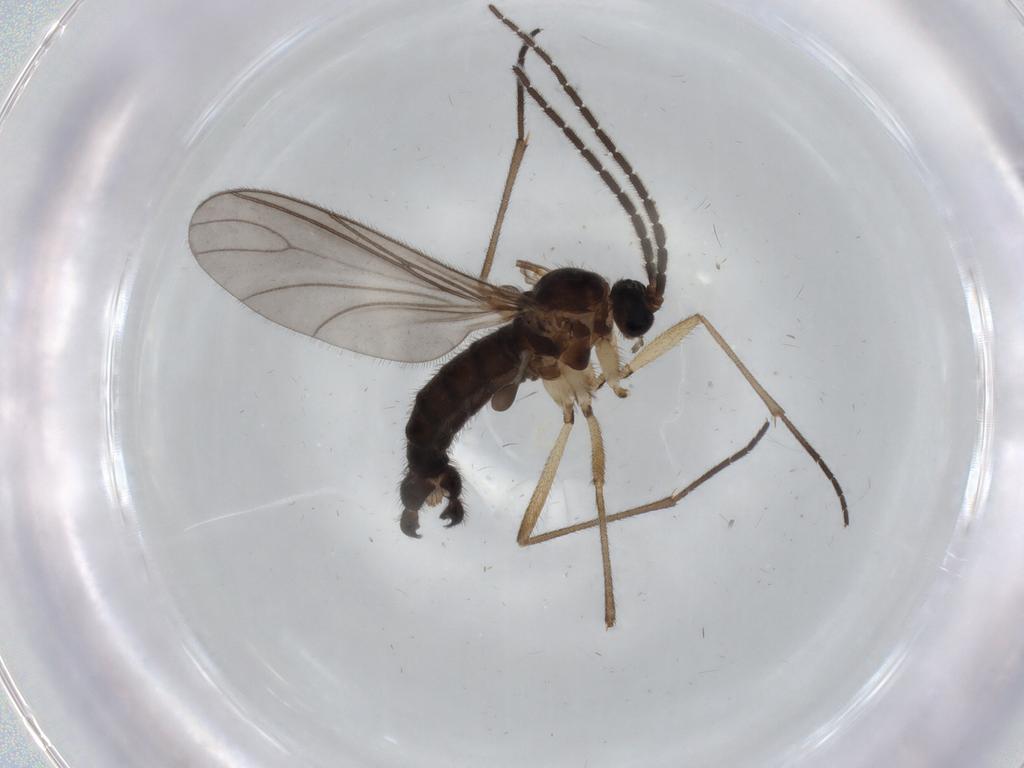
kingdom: Animalia
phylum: Arthropoda
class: Insecta
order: Diptera
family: Sciaridae
